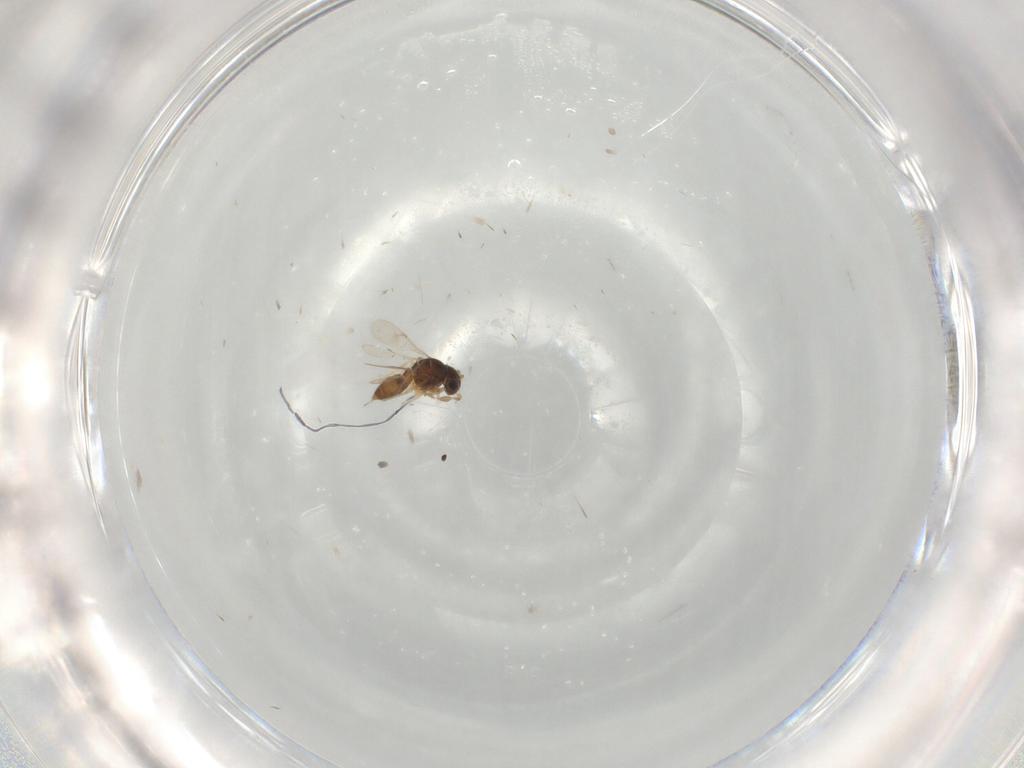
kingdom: Animalia
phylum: Arthropoda
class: Insecta
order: Hymenoptera
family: Scelionidae
